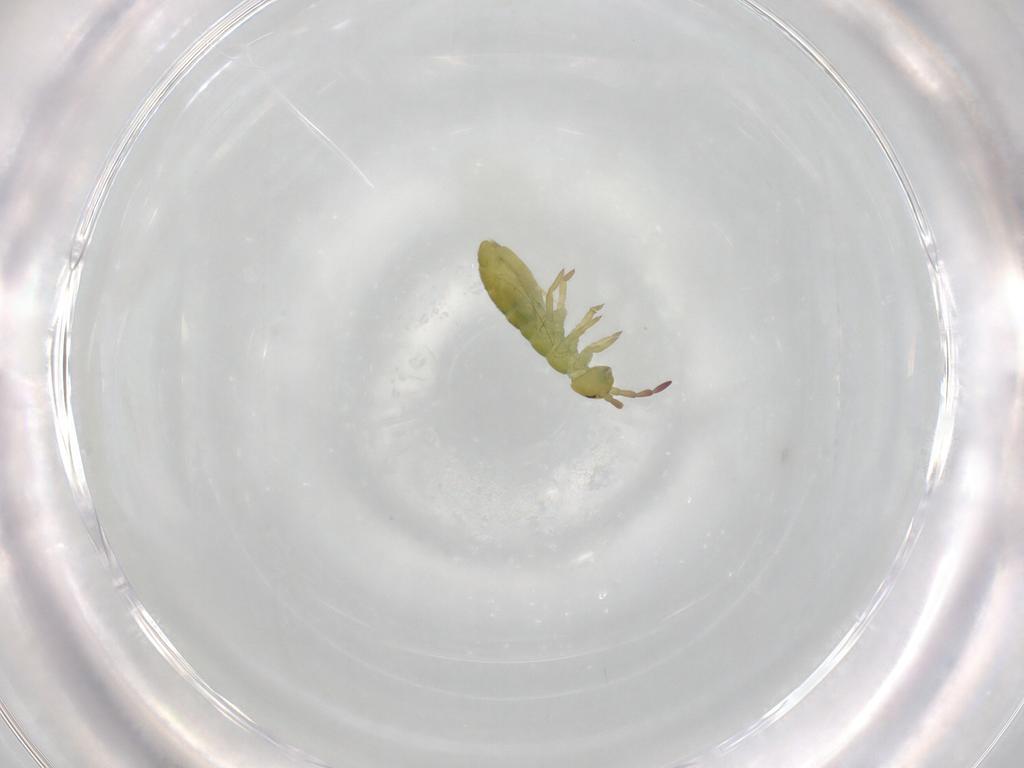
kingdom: Animalia
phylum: Arthropoda
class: Collembola
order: Entomobryomorpha
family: Isotomidae
